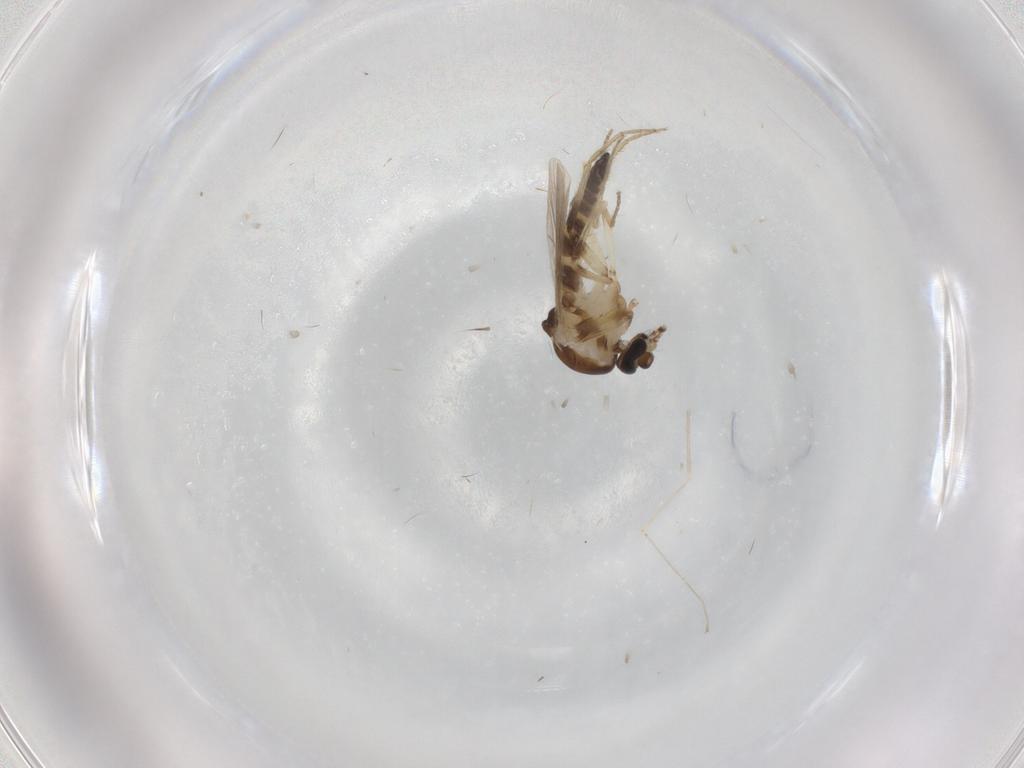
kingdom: Animalia
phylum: Arthropoda
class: Insecta
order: Diptera
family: Ceratopogonidae
